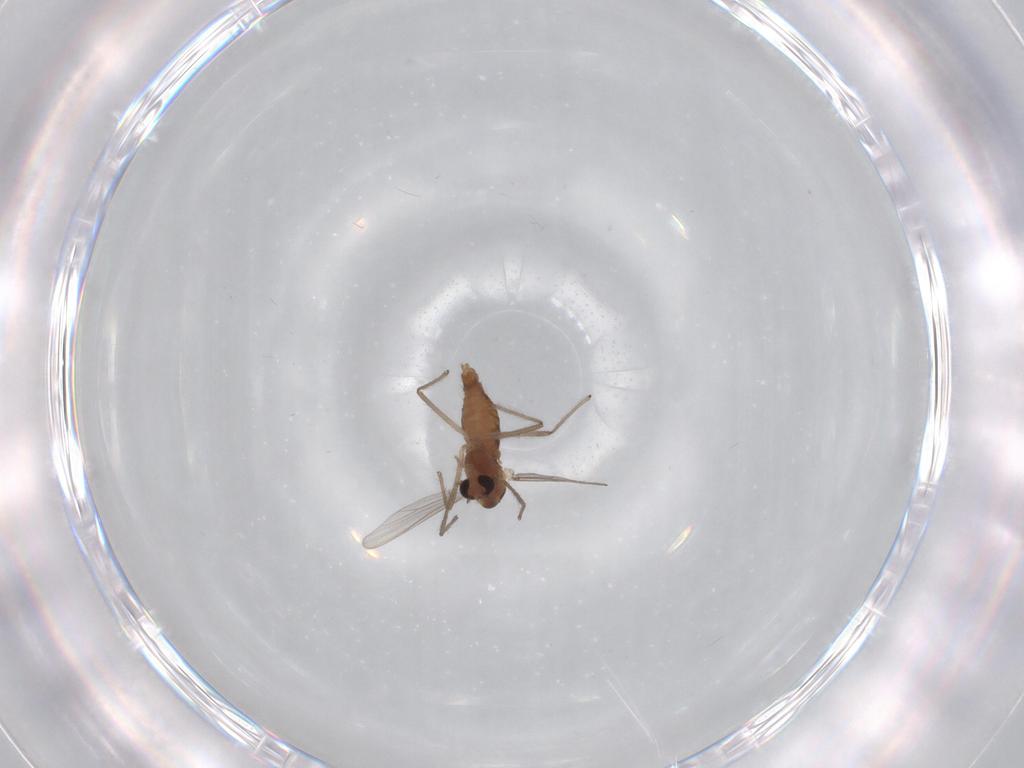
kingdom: Animalia
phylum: Arthropoda
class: Insecta
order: Diptera
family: Chironomidae
